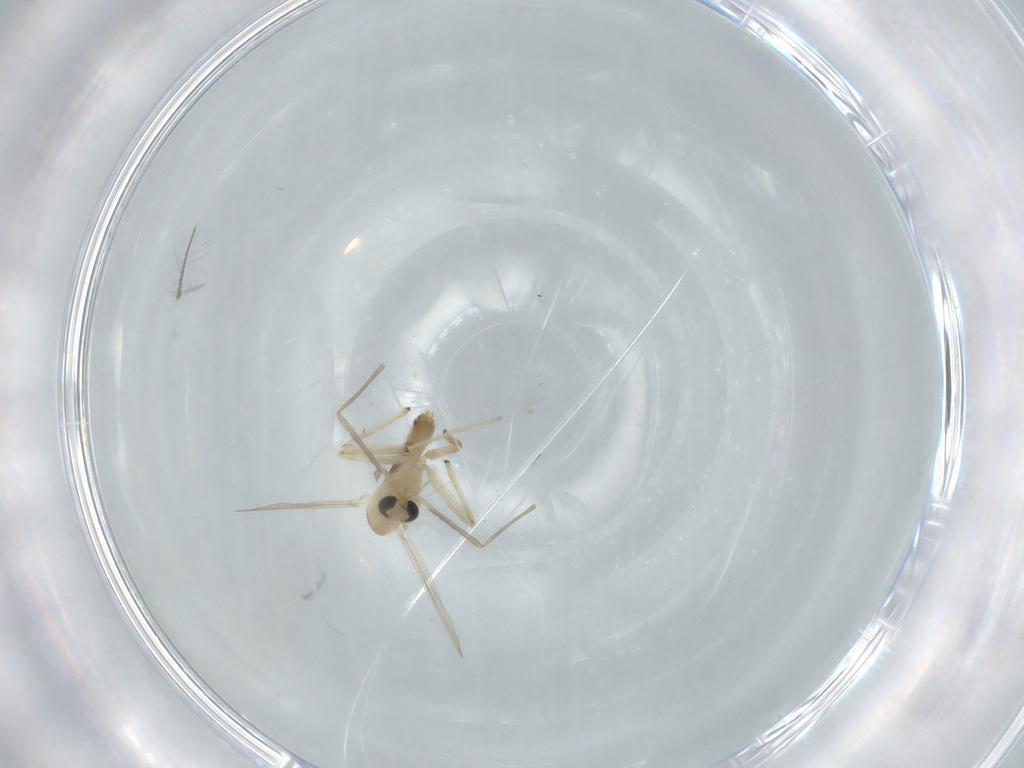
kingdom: Animalia
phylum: Arthropoda
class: Insecta
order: Diptera
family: Chironomidae
